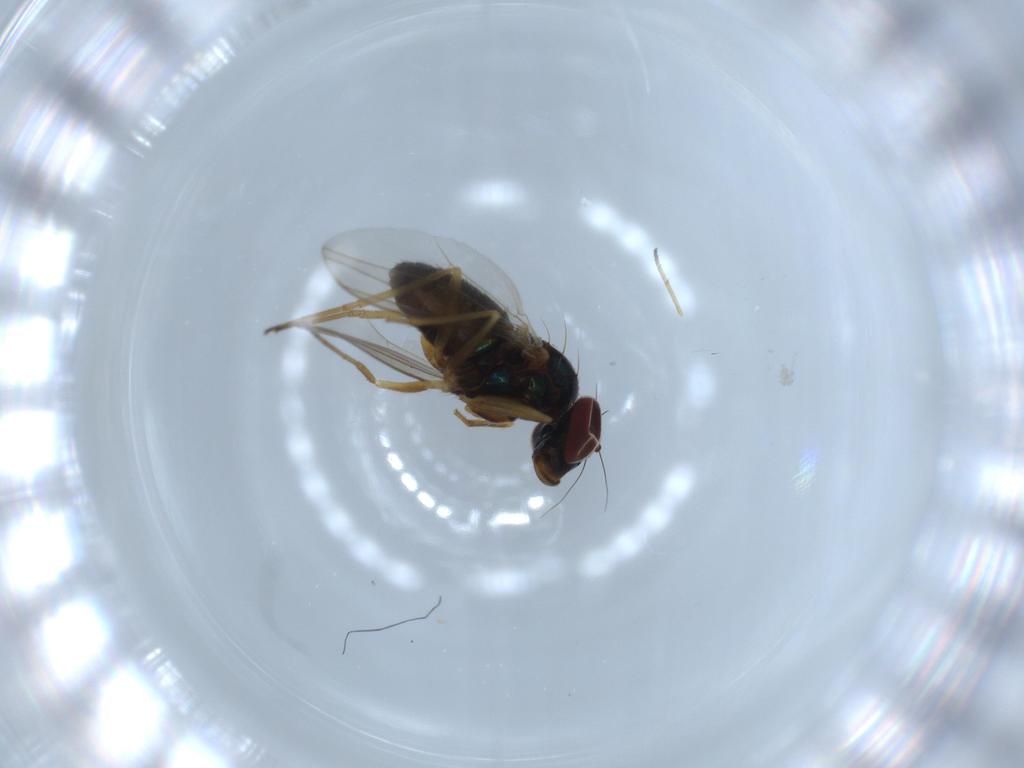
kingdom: Animalia
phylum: Arthropoda
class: Insecta
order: Diptera
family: Dolichopodidae
